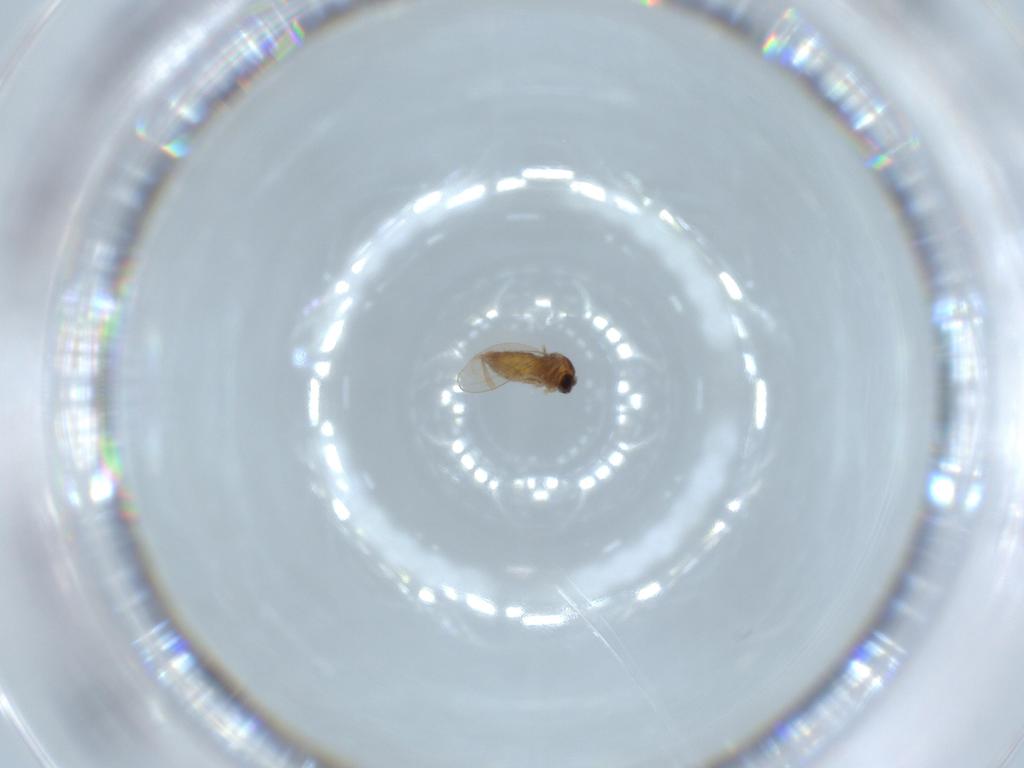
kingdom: Animalia
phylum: Arthropoda
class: Insecta
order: Diptera
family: Cecidomyiidae
